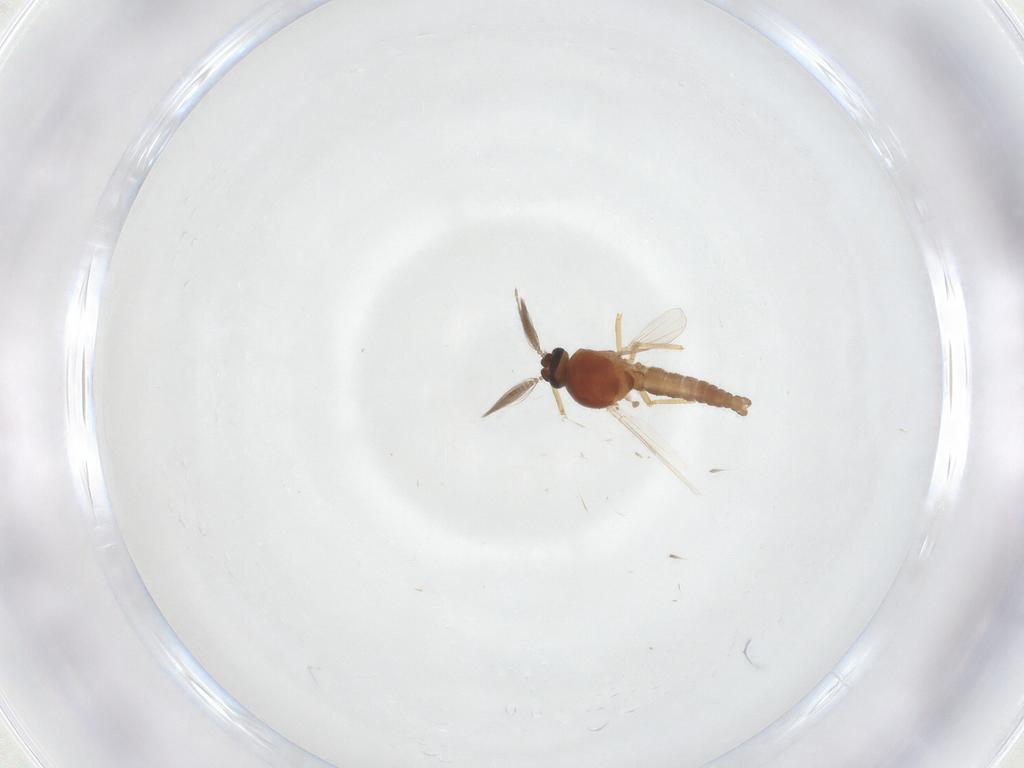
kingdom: Animalia
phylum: Arthropoda
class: Insecta
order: Diptera
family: Ceratopogonidae
